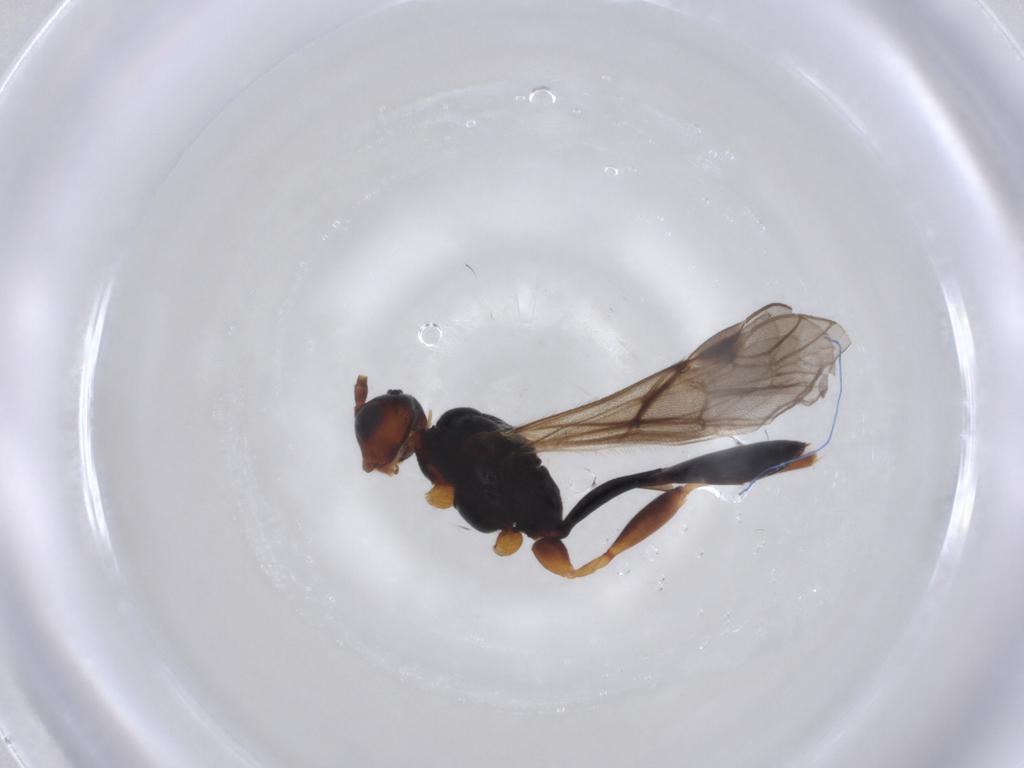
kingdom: Animalia
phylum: Arthropoda
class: Insecta
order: Hymenoptera
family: Braconidae
